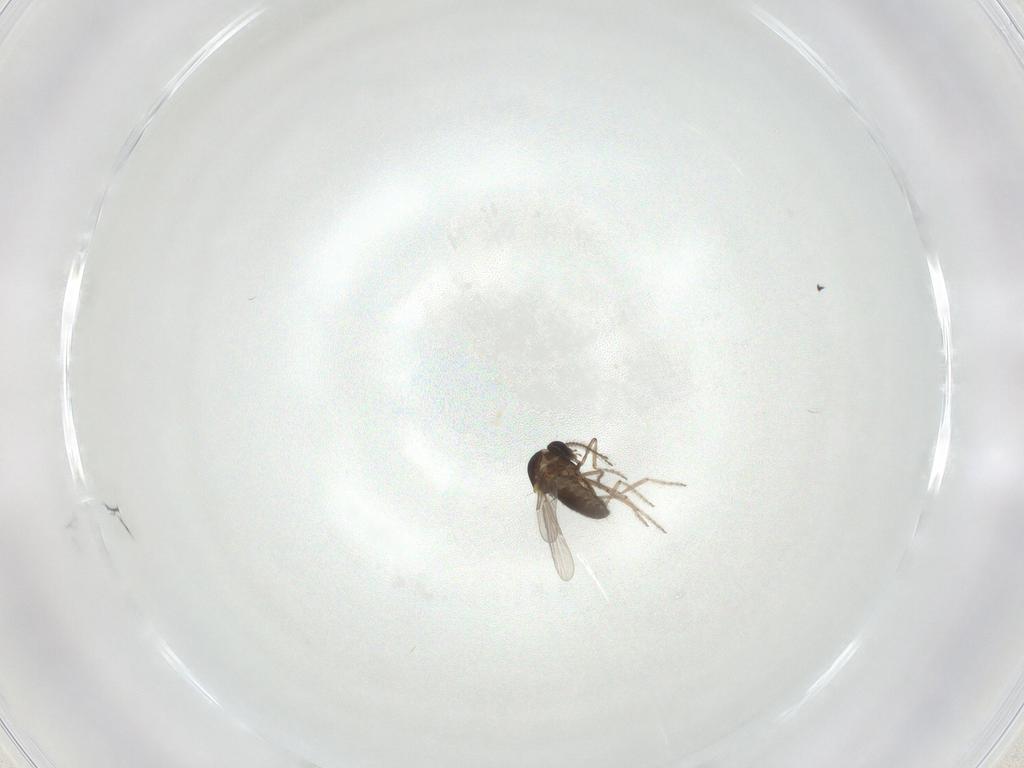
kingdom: Animalia
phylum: Arthropoda
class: Insecta
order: Diptera
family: Ceratopogonidae
